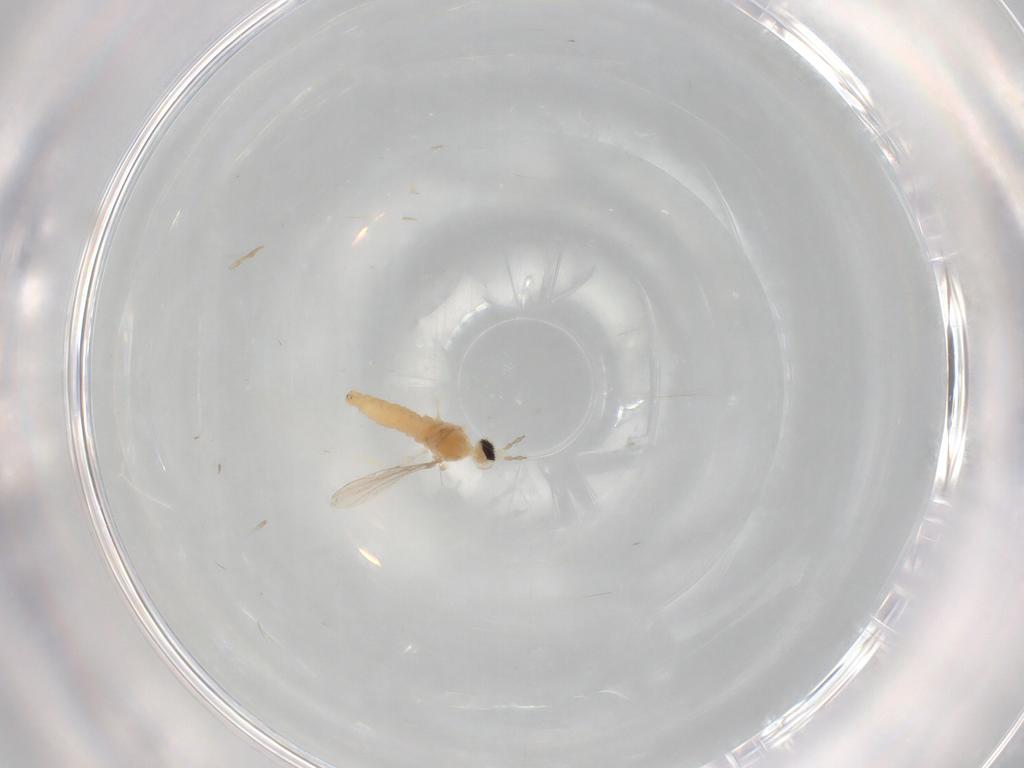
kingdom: Animalia
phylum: Arthropoda
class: Insecta
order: Diptera
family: Cecidomyiidae
